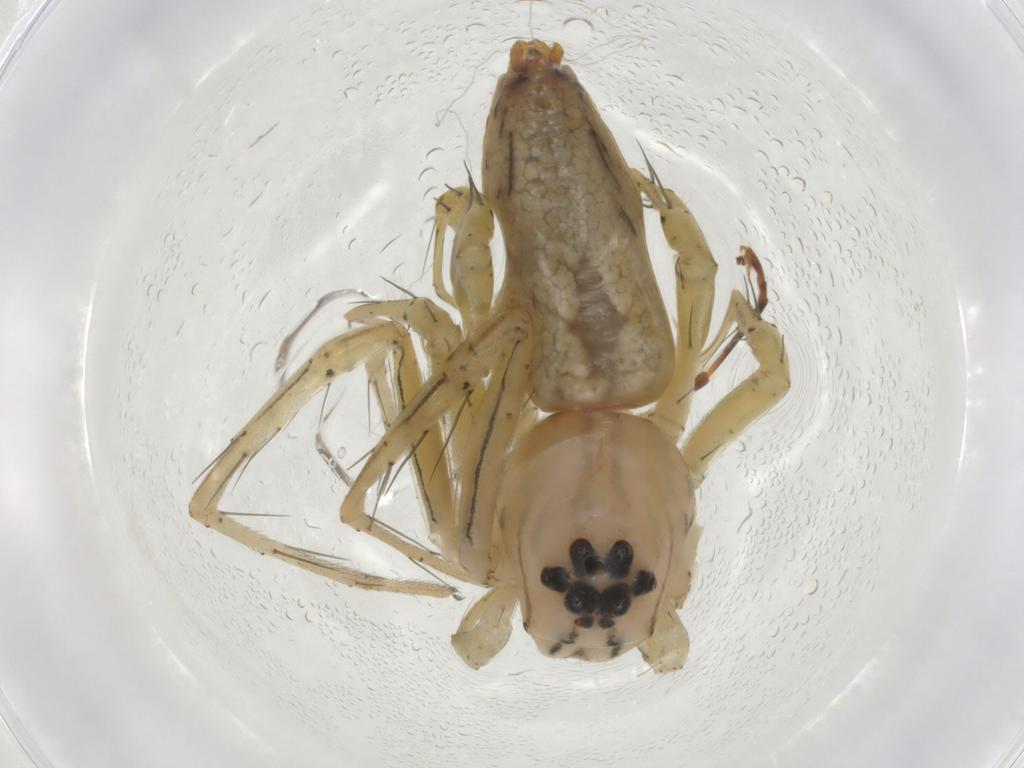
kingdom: Animalia
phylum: Arthropoda
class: Arachnida
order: Araneae
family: Oxyopidae
